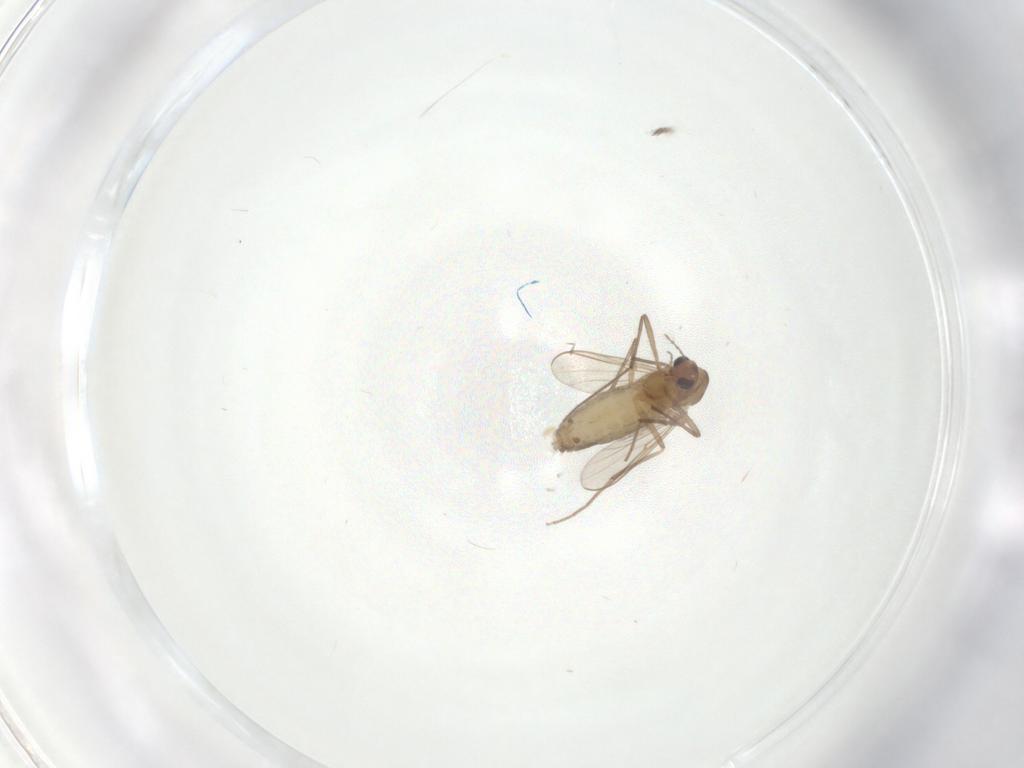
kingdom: Animalia
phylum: Arthropoda
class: Insecta
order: Diptera
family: Chironomidae
